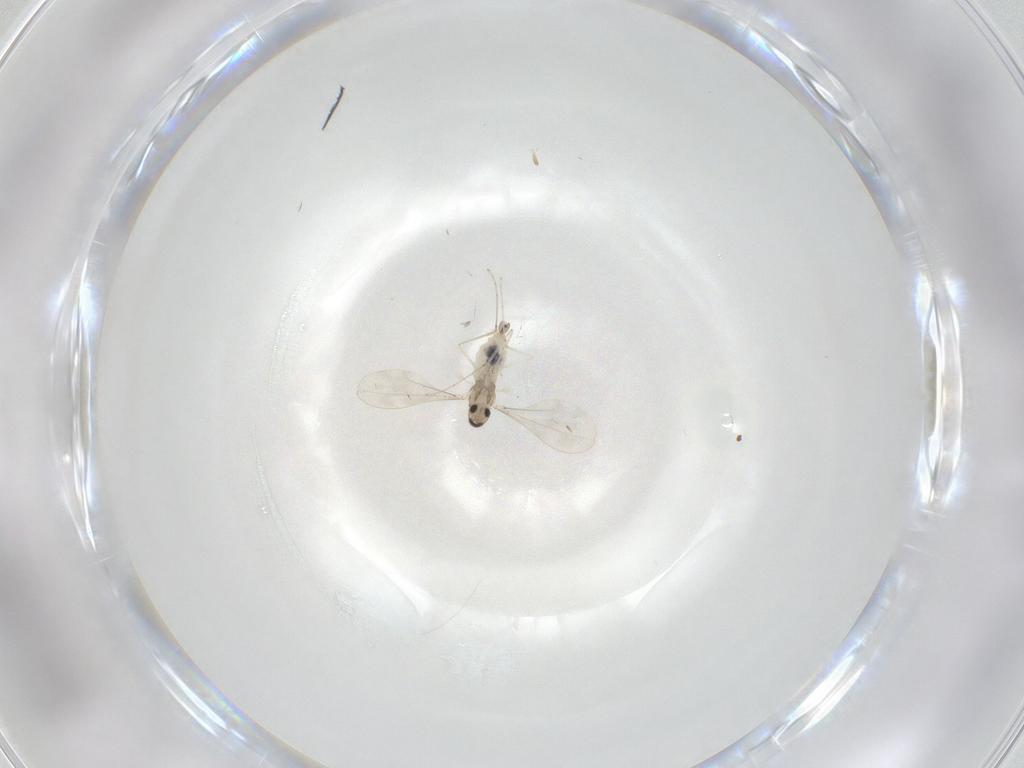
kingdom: Animalia
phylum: Arthropoda
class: Insecta
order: Diptera
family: Cecidomyiidae
